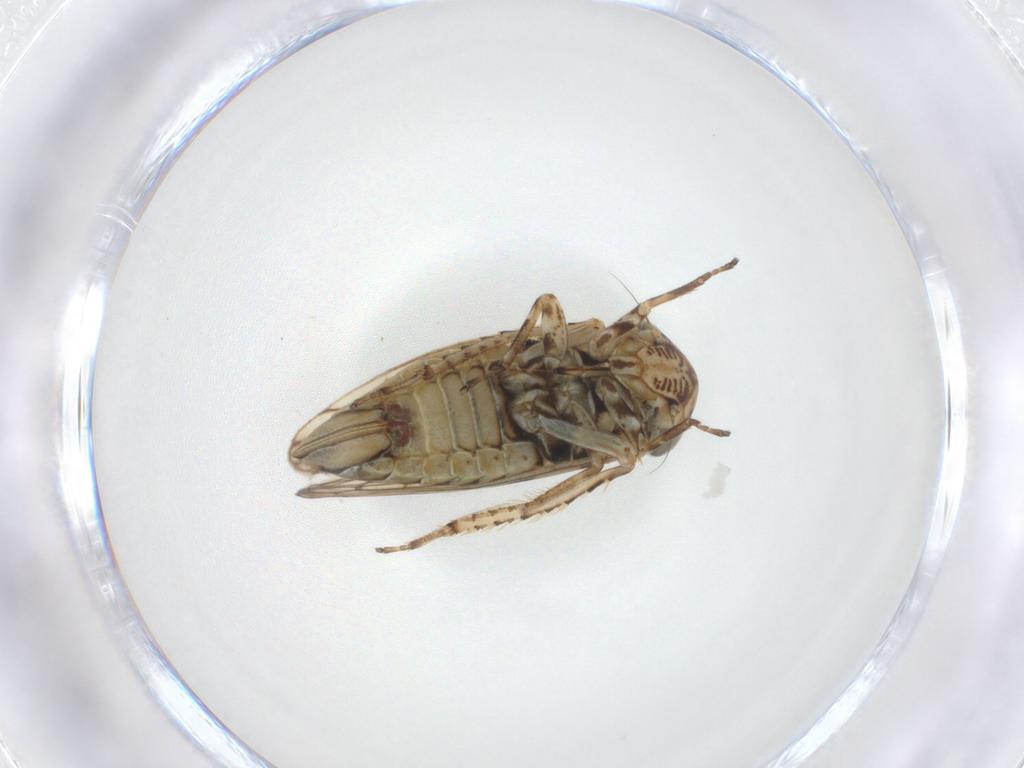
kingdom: Animalia
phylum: Arthropoda
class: Insecta
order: Hemiptera
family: Cicadellidae
